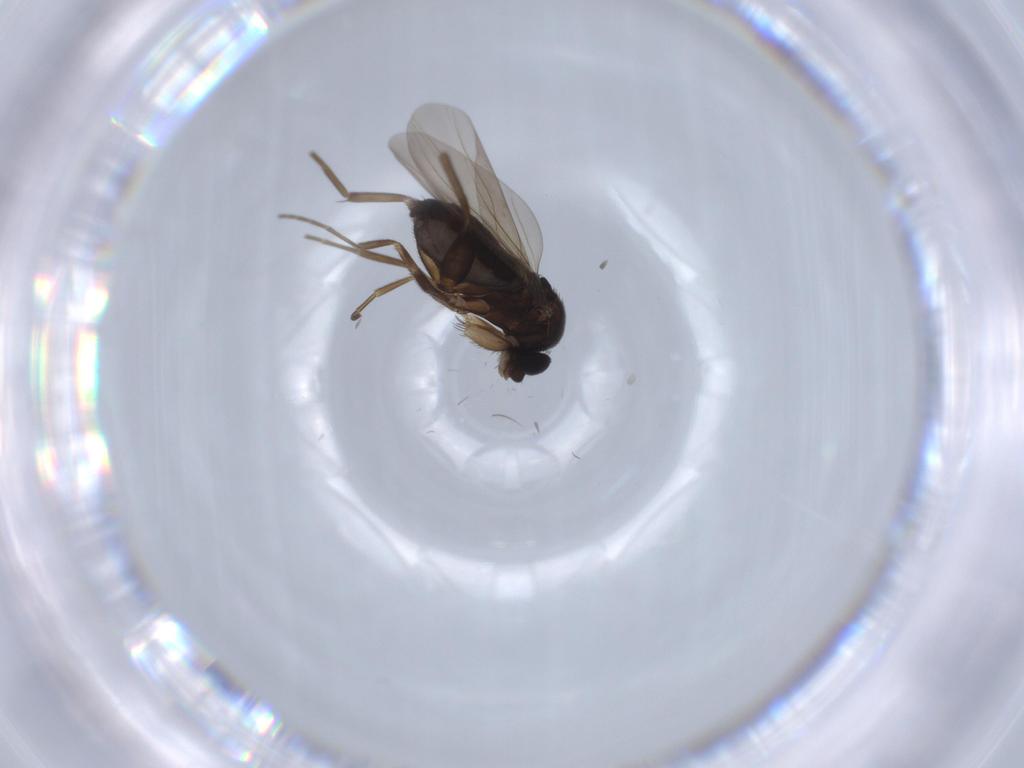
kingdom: Animalia
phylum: Arthropoda
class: Insecta
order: Diptera
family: Phoridae
